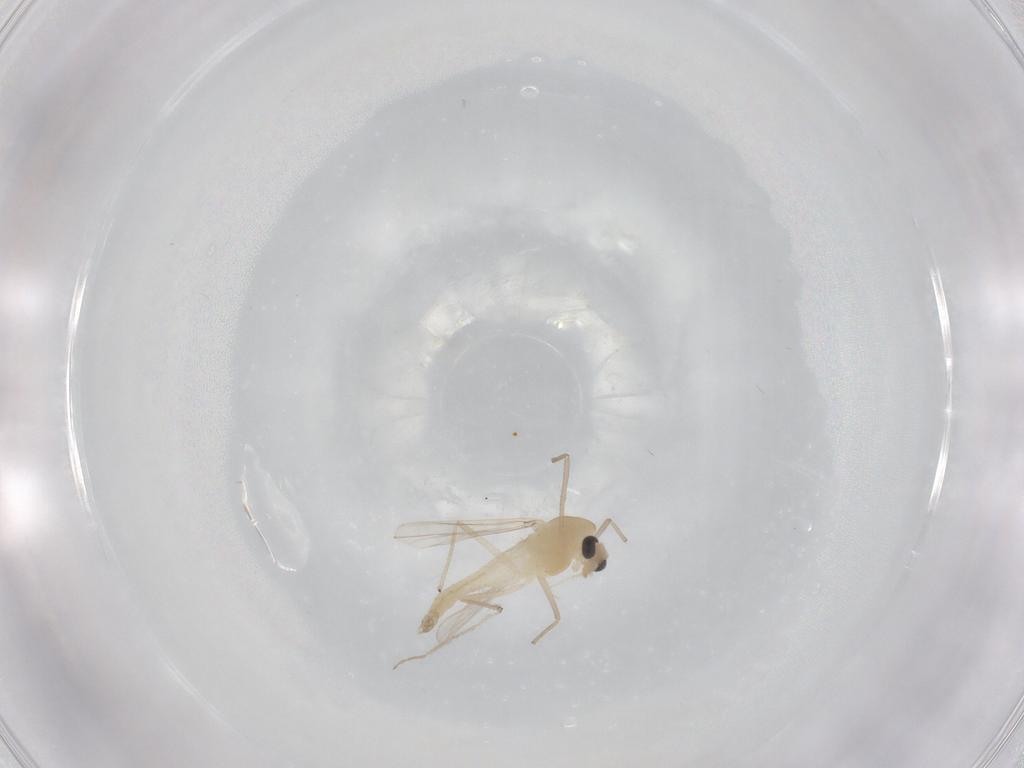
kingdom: Animalia
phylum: Arthropoda
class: Insecta
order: Diptera
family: Chironomidae
